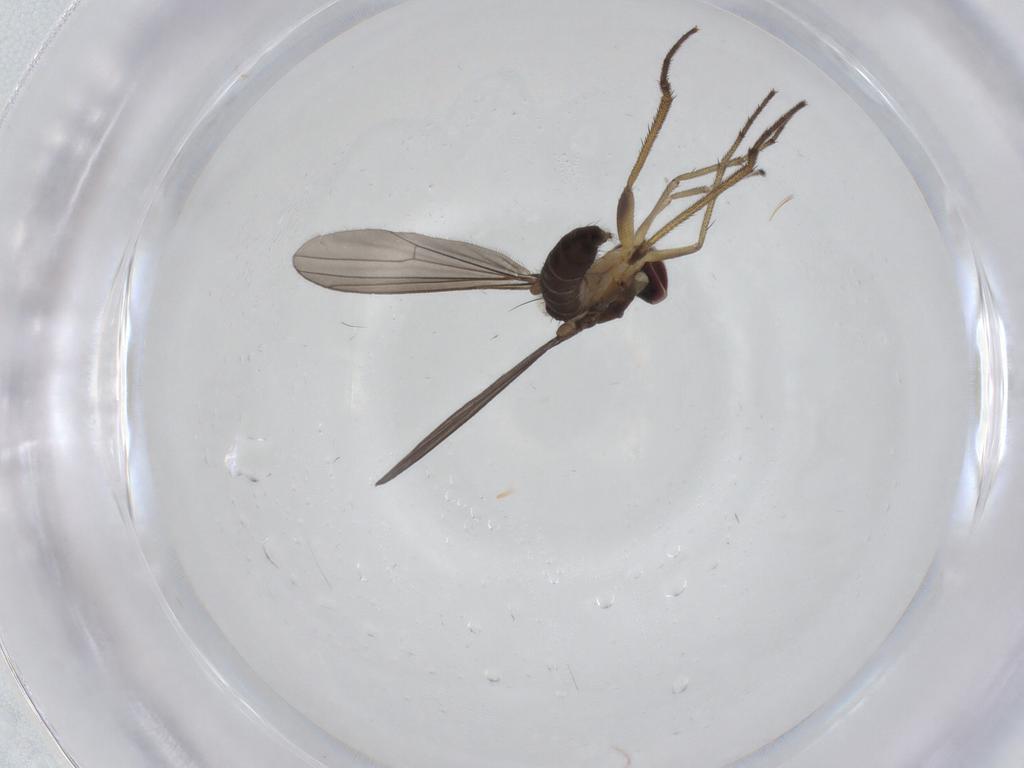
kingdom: Animalia
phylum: Arthropoda
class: Insecta
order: Diptera
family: Dolichopodidae
